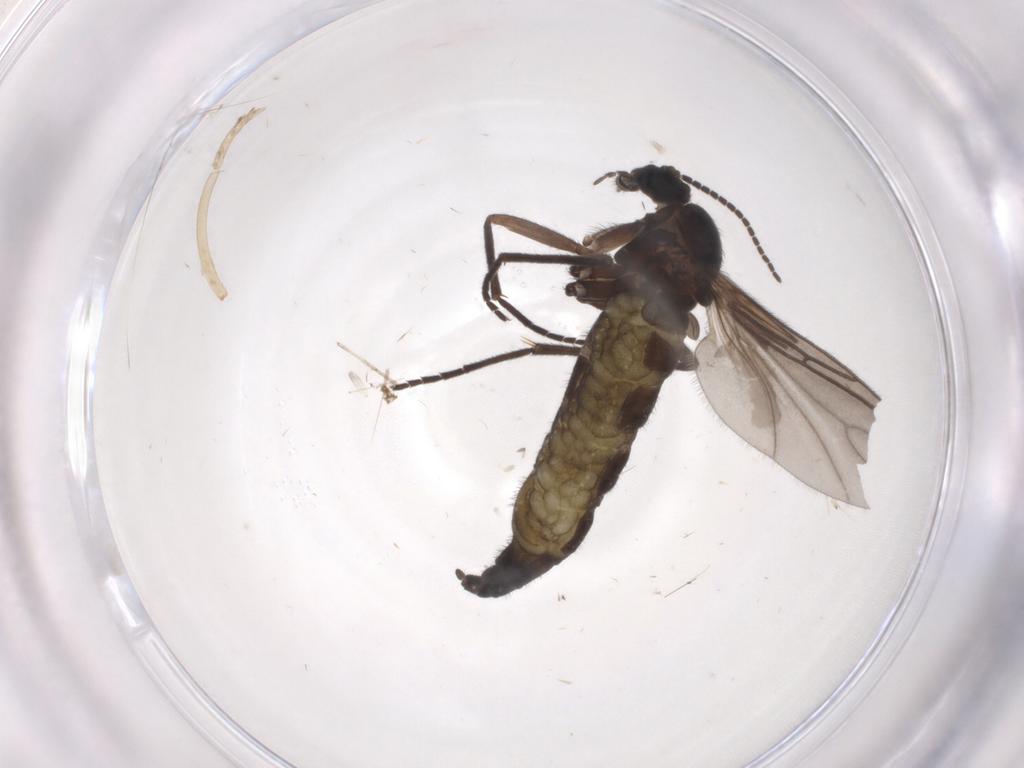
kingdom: Animalia
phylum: Arthropoda
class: Insecta
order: Diptera
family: Sciaridae
